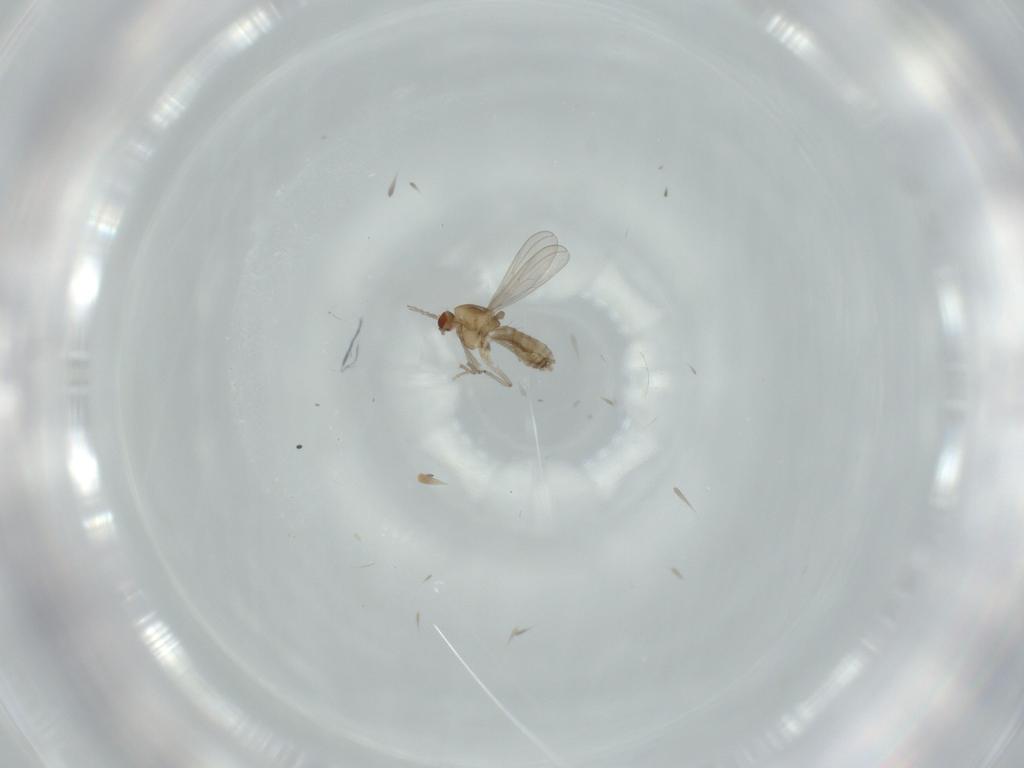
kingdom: Animalia
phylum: Arthropoda
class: Insecta
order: Diptera
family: Chironomidae
